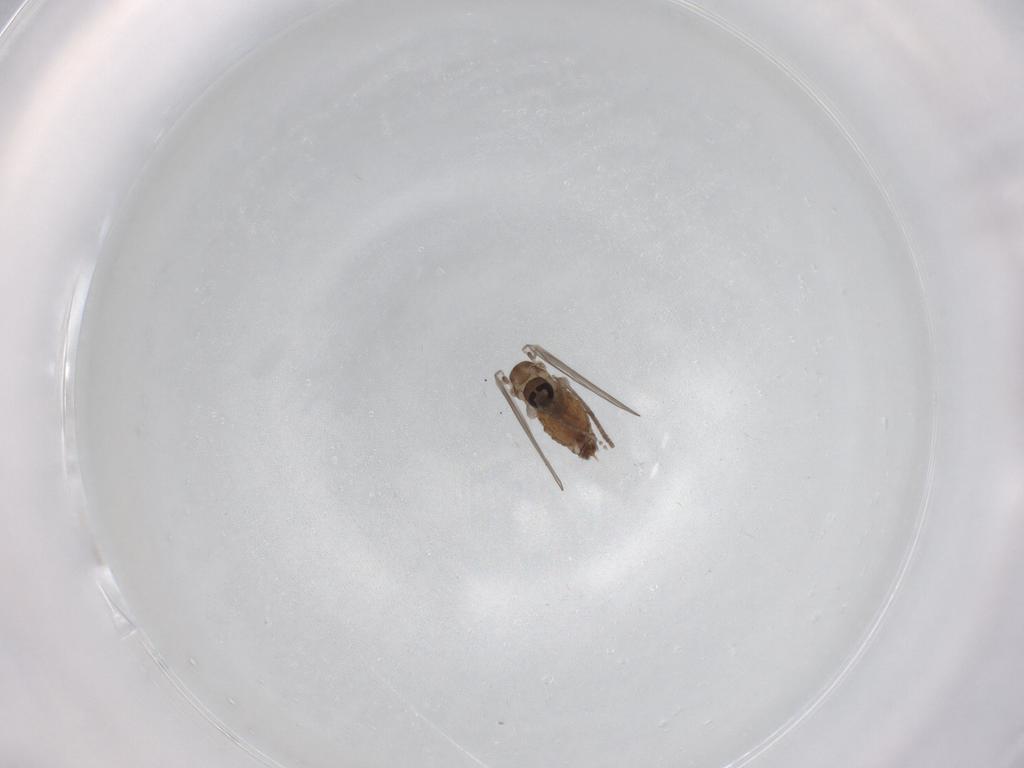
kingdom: Animalia
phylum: Arthropoda
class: Insecta
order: Diptera
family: Psychodidae
